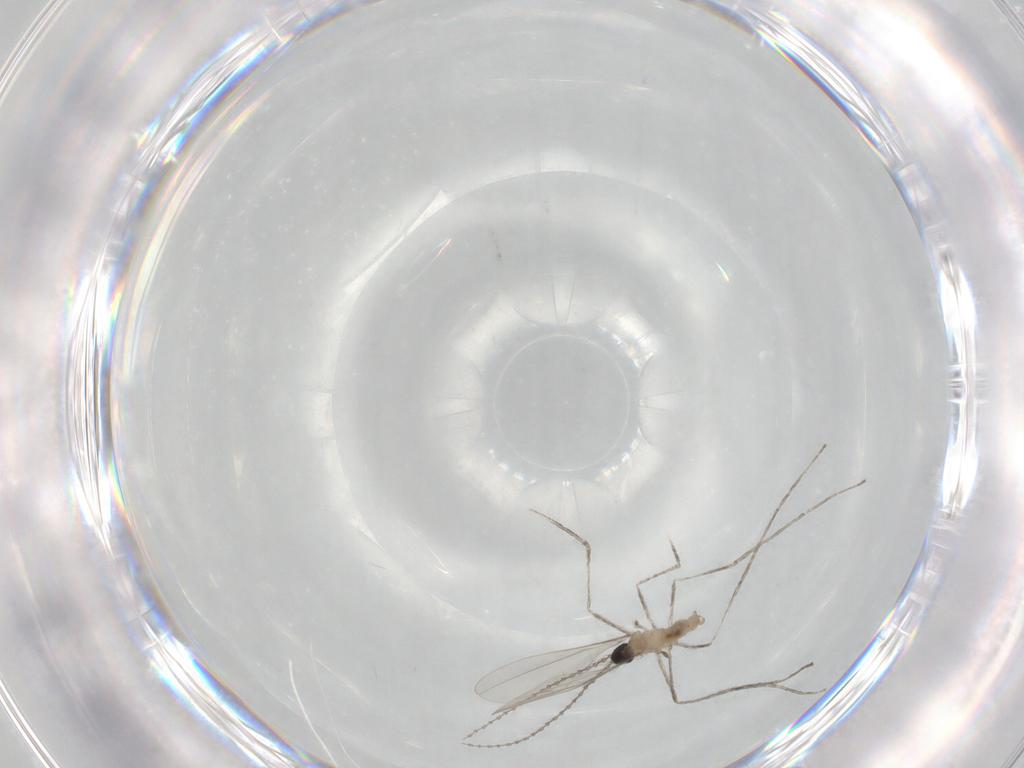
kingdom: Animalia
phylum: Arthropoda
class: Insecta
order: Diptera
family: Cecidomyiidae
